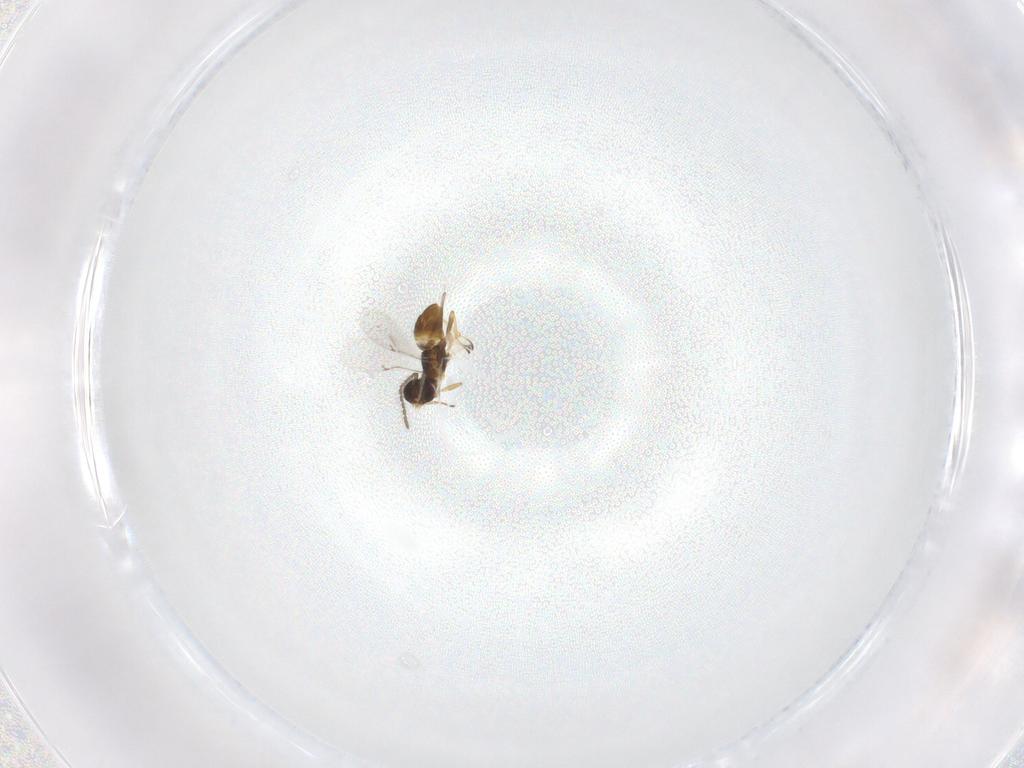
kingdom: Animalia
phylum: Arthropoda
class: Insecta
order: Hymenoptera
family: Encyrtidae
